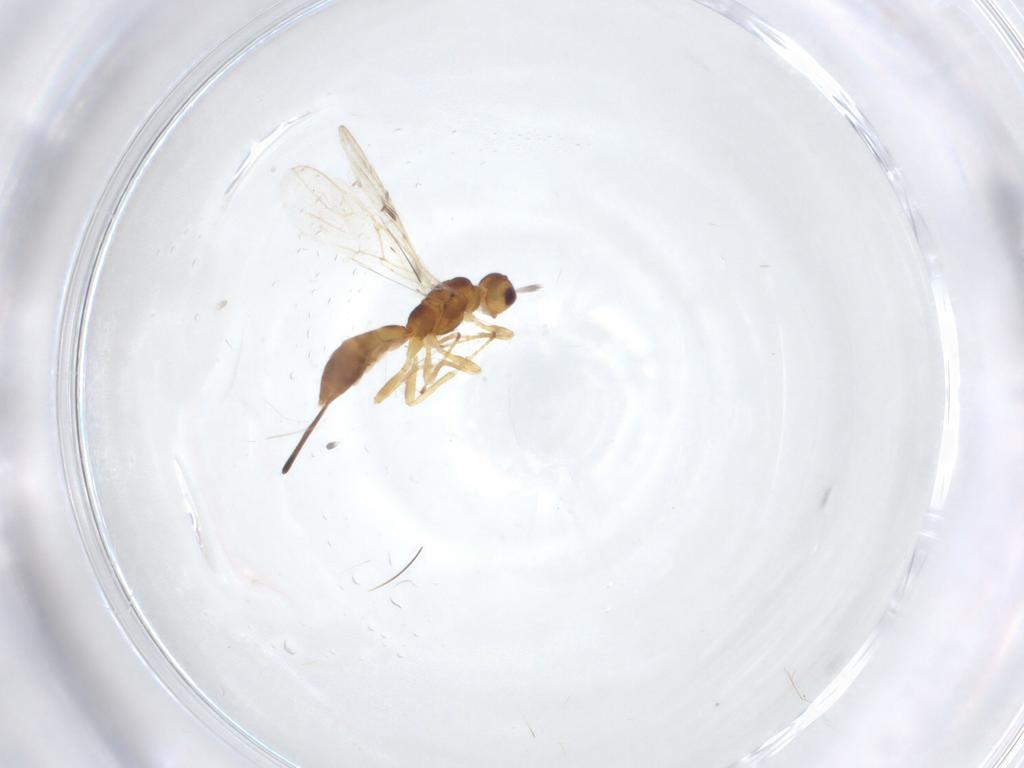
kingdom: Animalia
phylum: Arthropoda
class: Insecta
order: Hymenoptera
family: Braconidae
